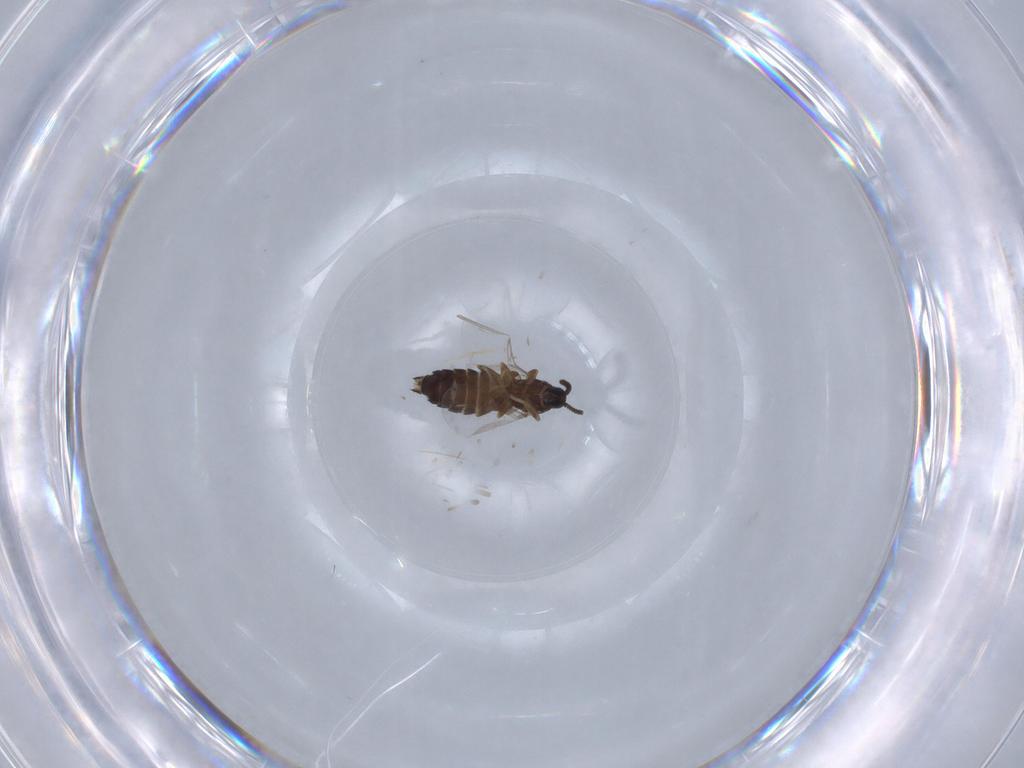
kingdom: Animalia
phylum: Arthropoda
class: Insecta
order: Diptera
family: Scatopsidae
